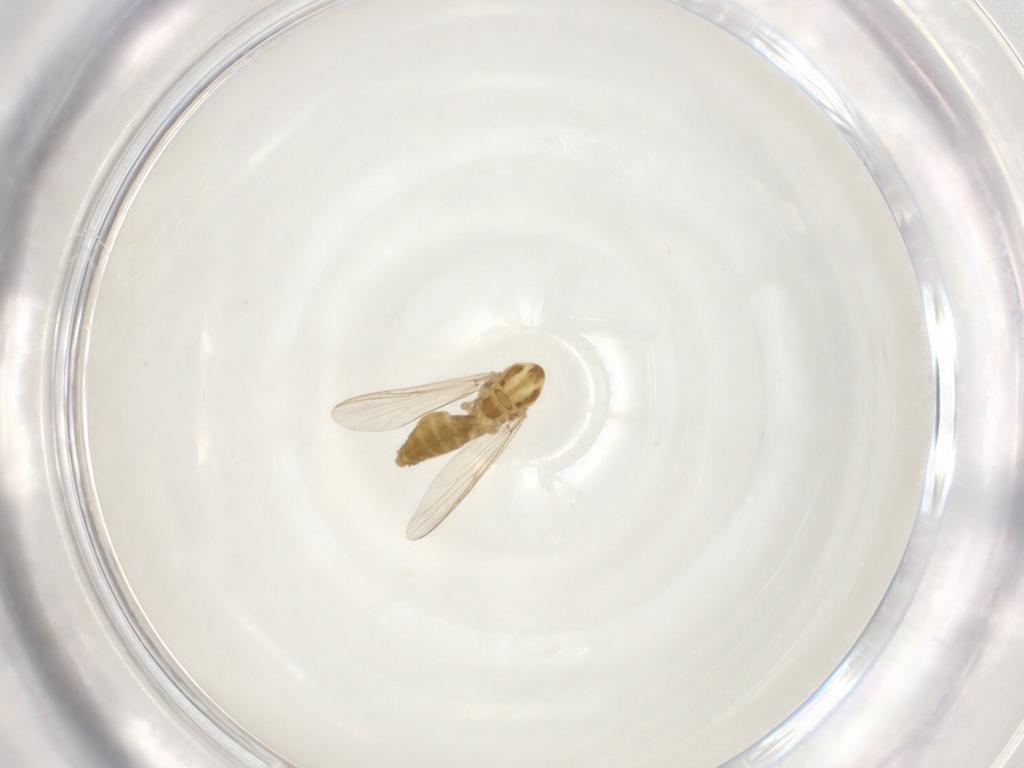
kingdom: Animalia
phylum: Arthropoda
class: Insecta
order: Diptera
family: Chironomidae
